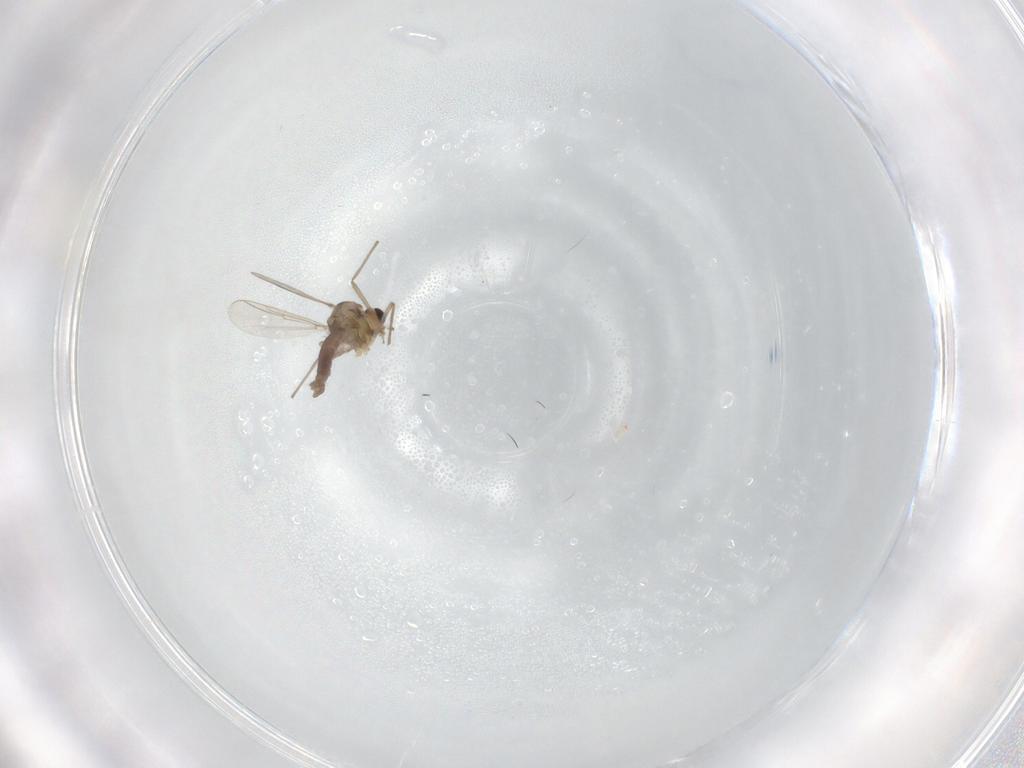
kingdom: Animalia
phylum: Arthropoda
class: Insecta
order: Diptera
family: Chironomidae
